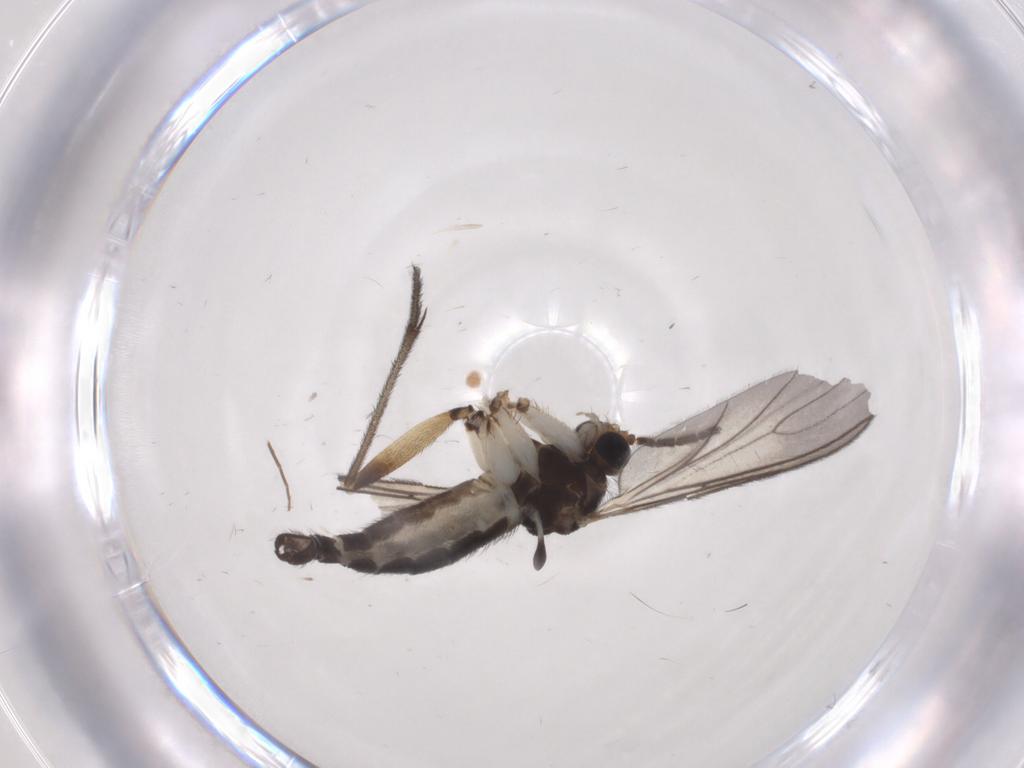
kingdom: Animalia
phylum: Arthropoda
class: Insecta
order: Diptera
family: Sciaridae
